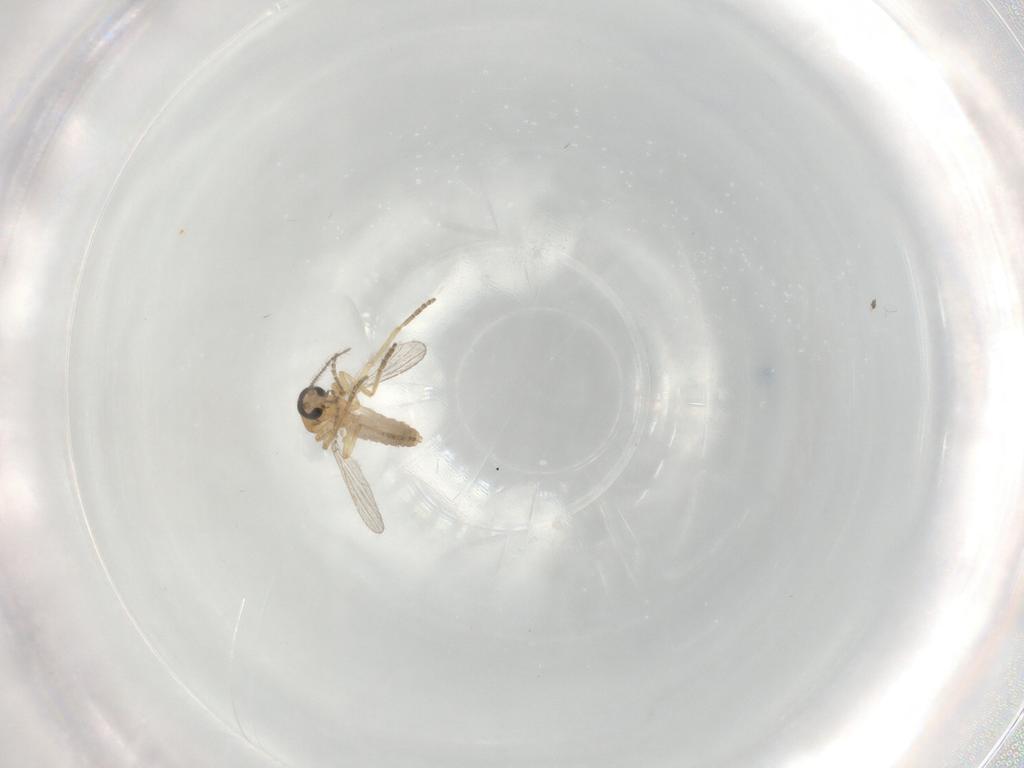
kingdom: Animalia
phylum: Arthropoda
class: Insecta
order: Diptera
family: Ceratopogonidae
